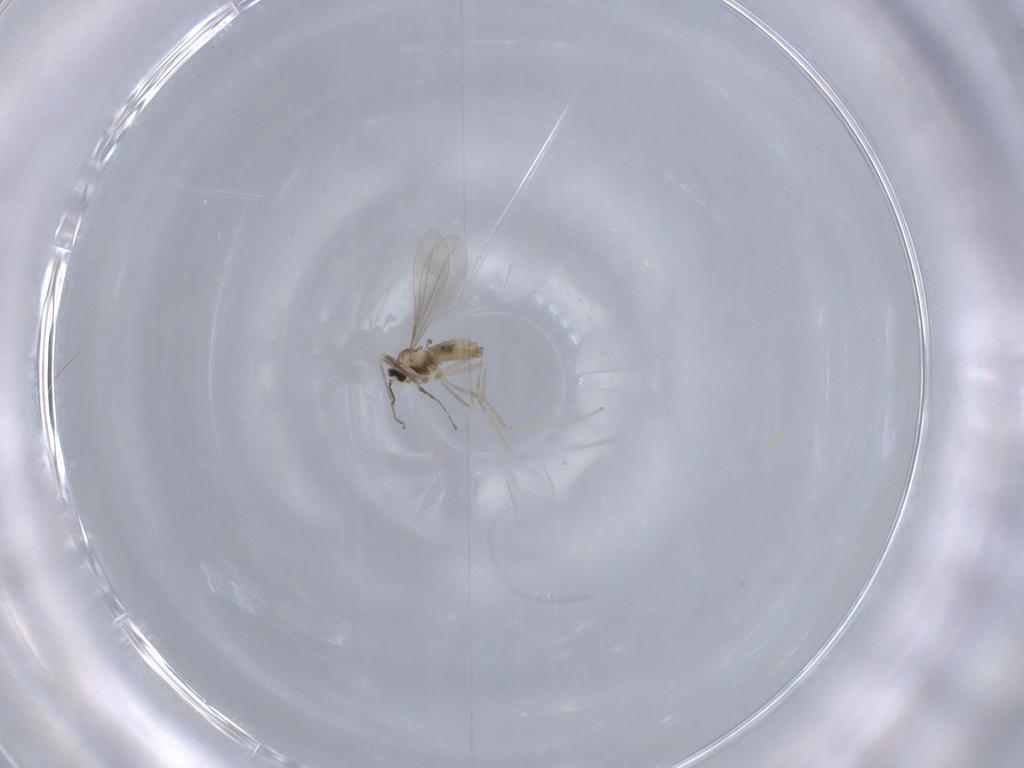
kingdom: Animalia
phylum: Arthropoda
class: Insecta
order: Diptera
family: Cecidomyiidae
